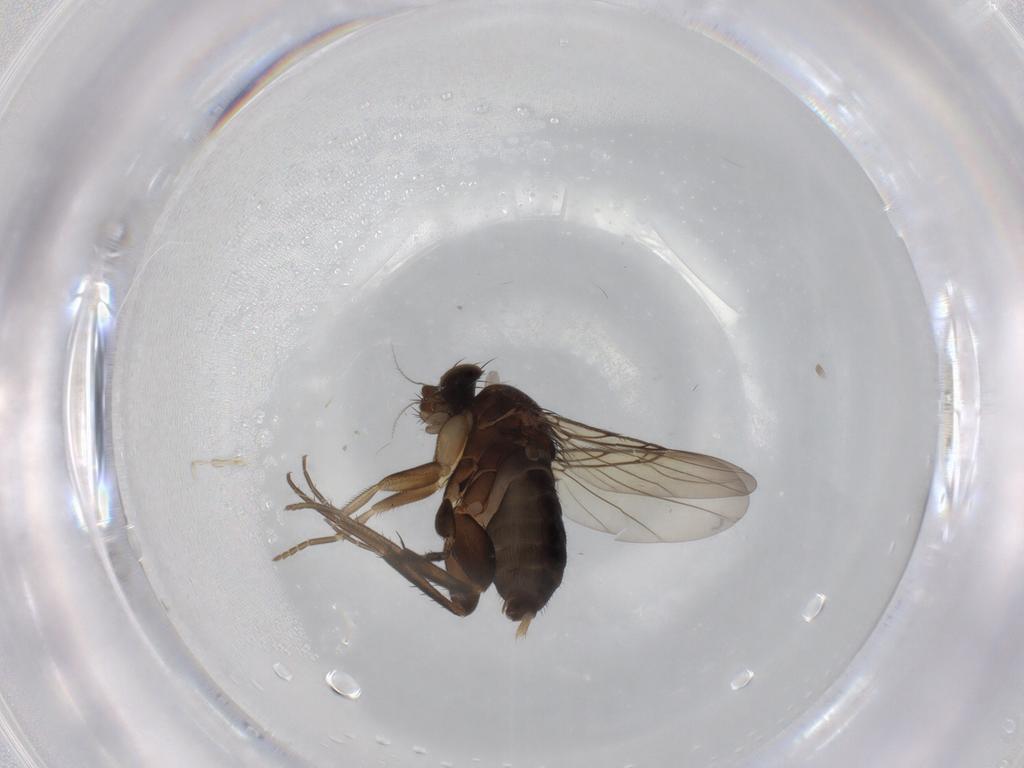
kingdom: Animalia
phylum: Arthropoda
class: Insecta
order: Diptera
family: Phoridae
